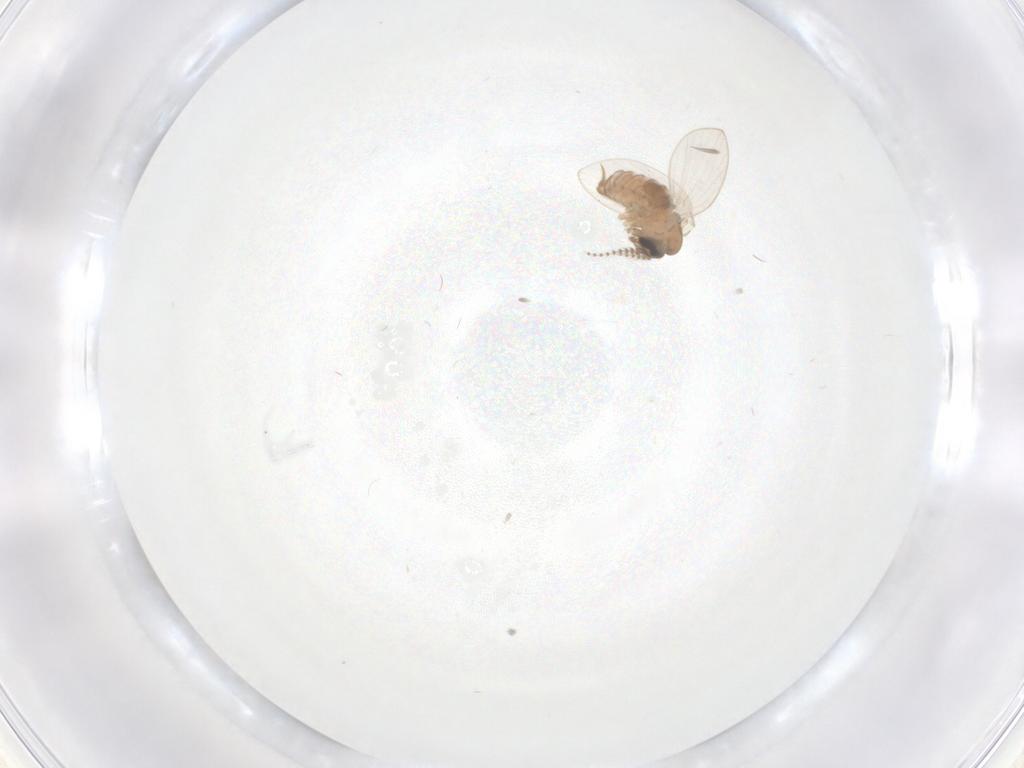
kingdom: Animalia
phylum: Arthropoda
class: Insecta
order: Diptera
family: Psychodidae
